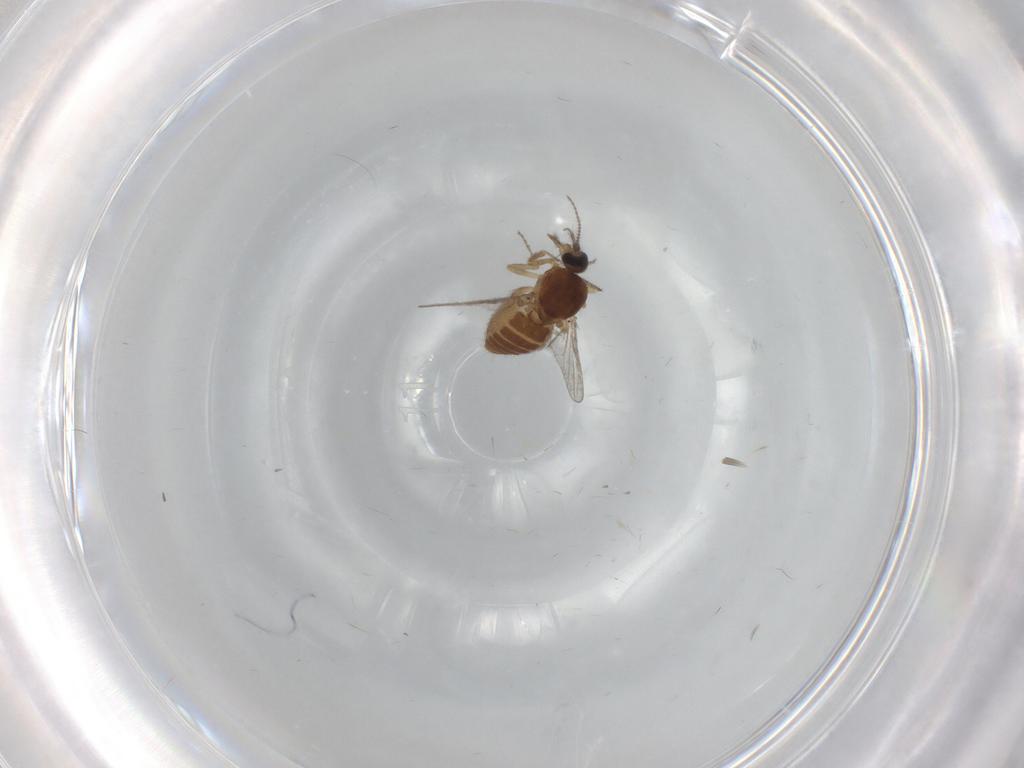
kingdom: Animalia
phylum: Arthropoda
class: Insecta
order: Diptera
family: Ceratopogonidae
